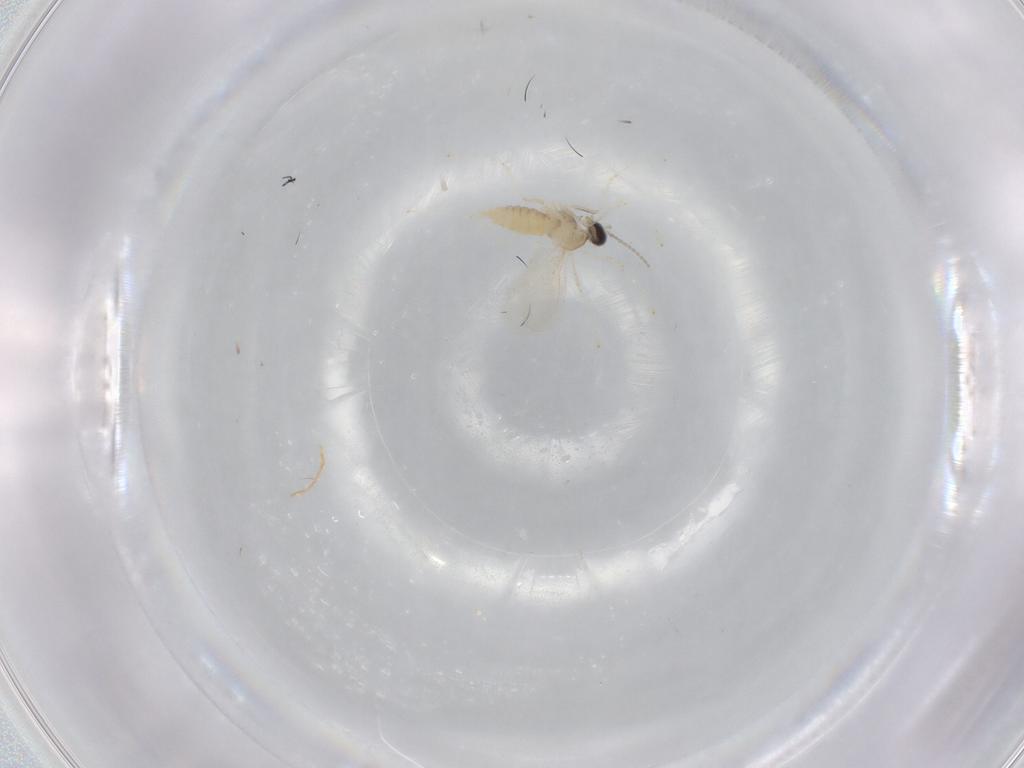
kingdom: Animalia
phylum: Arthropoda
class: Insecta
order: Diptera
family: Cecidomyiidae
